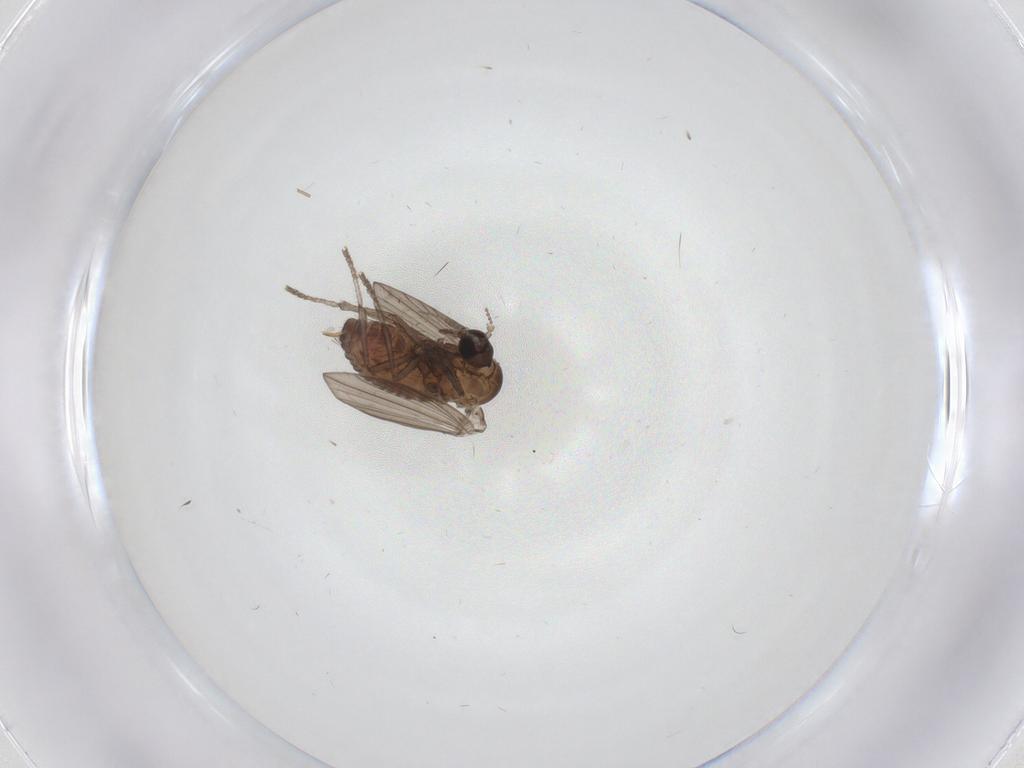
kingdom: Animalia
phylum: Arthropoda
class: Insecta
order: Diptera
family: Psychodidae
